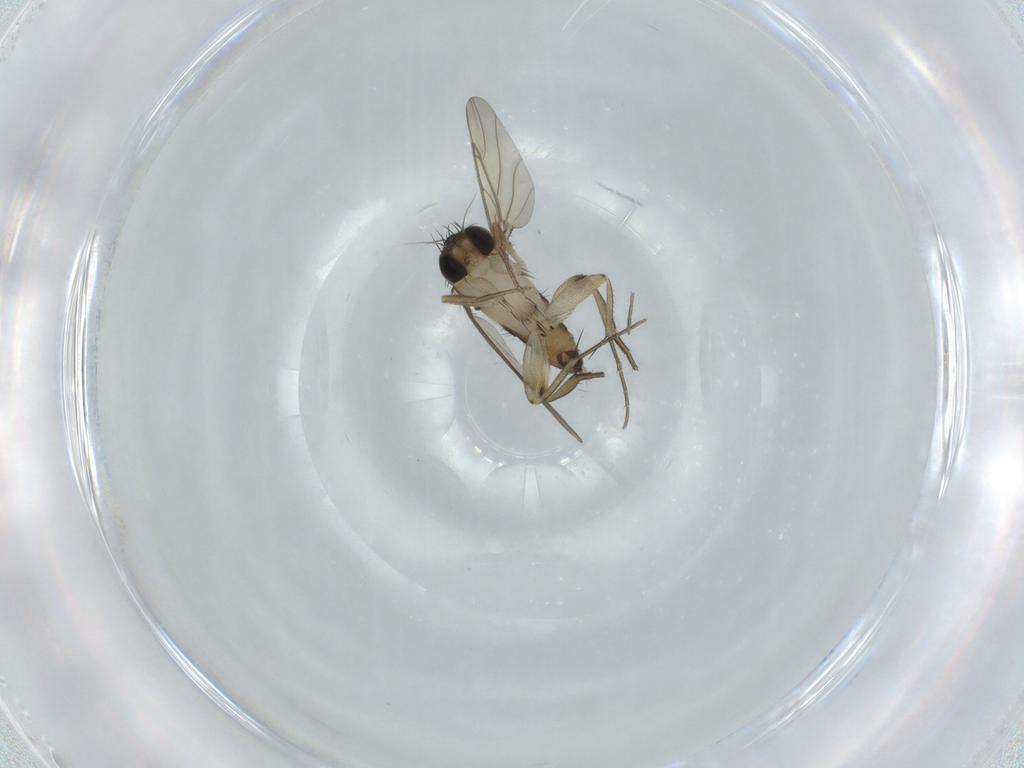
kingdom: Animalia
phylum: Arthropoda
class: Insecta
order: Diptera
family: Phoridae
